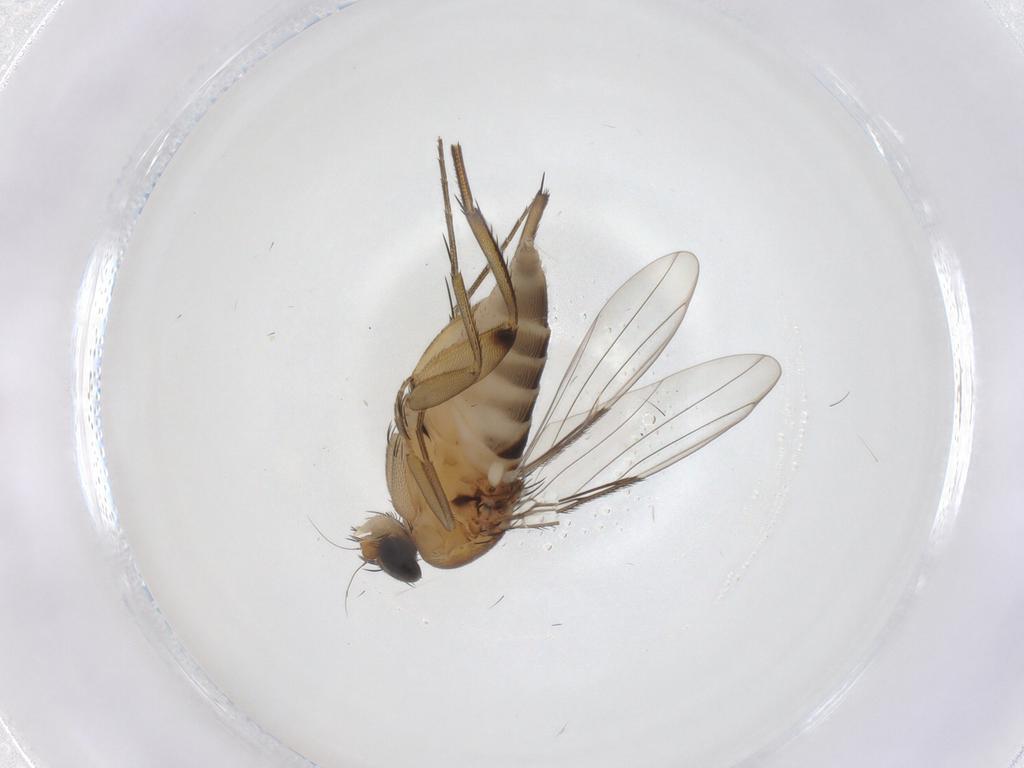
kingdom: Animalia
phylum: Arthropoda
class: Insecta
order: Diptera
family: Phoridae
